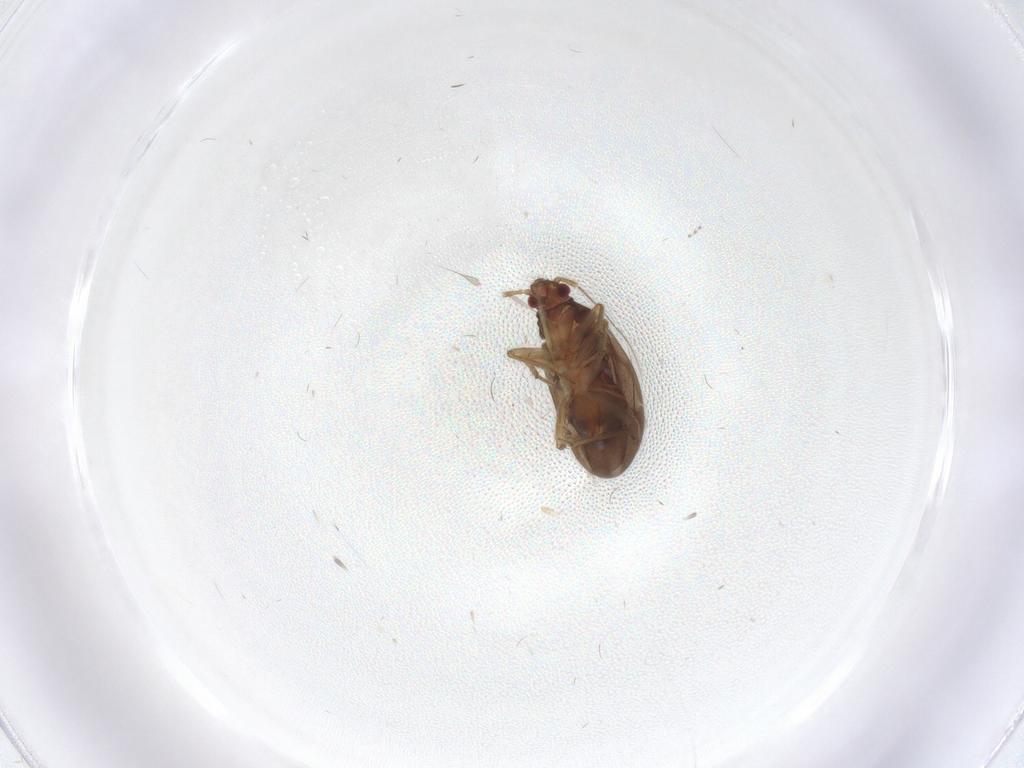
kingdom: Animalia
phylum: Arthropoda
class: Insecta
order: Hemiptera
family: Ceratocombidae
